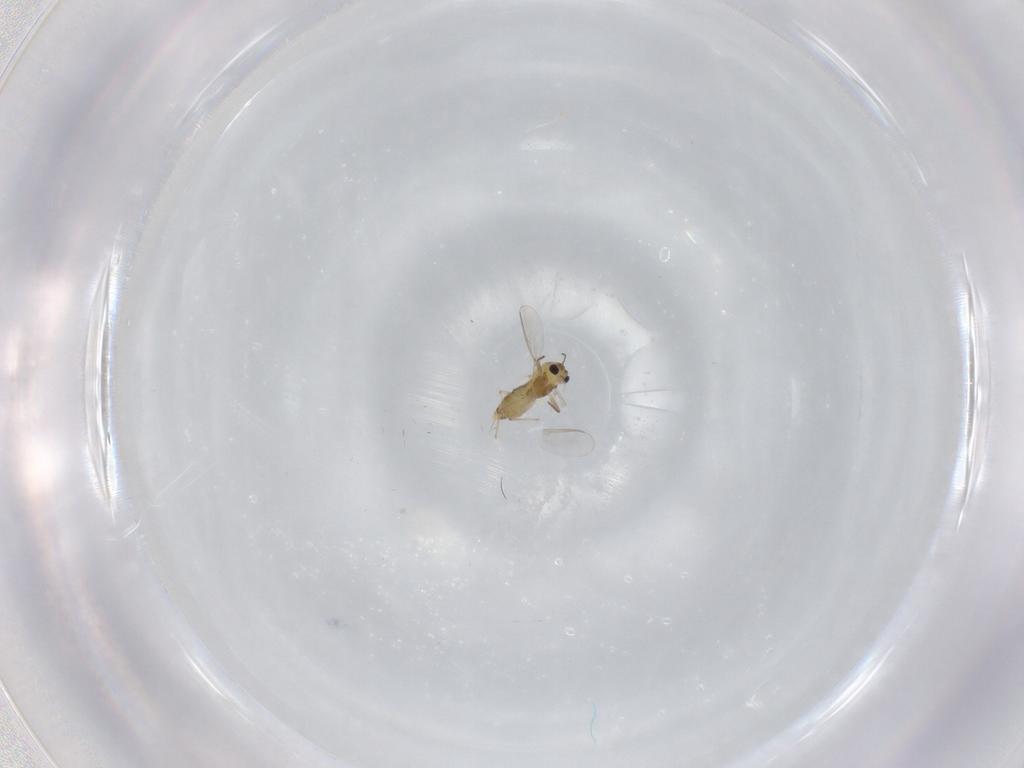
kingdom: Animalia
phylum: Arthropoda
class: Insecta
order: Diptera
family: Chironomidae
